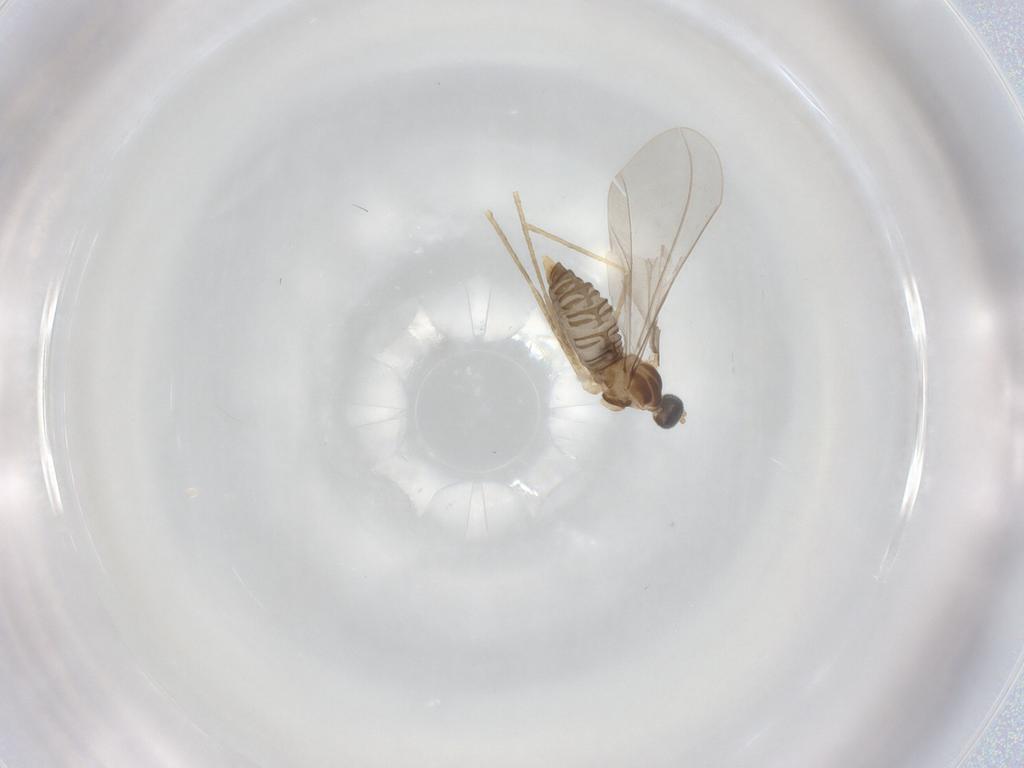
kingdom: Animalia
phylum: Arthropoda
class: Insecta
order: Diptera
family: Cecidomyiidae
